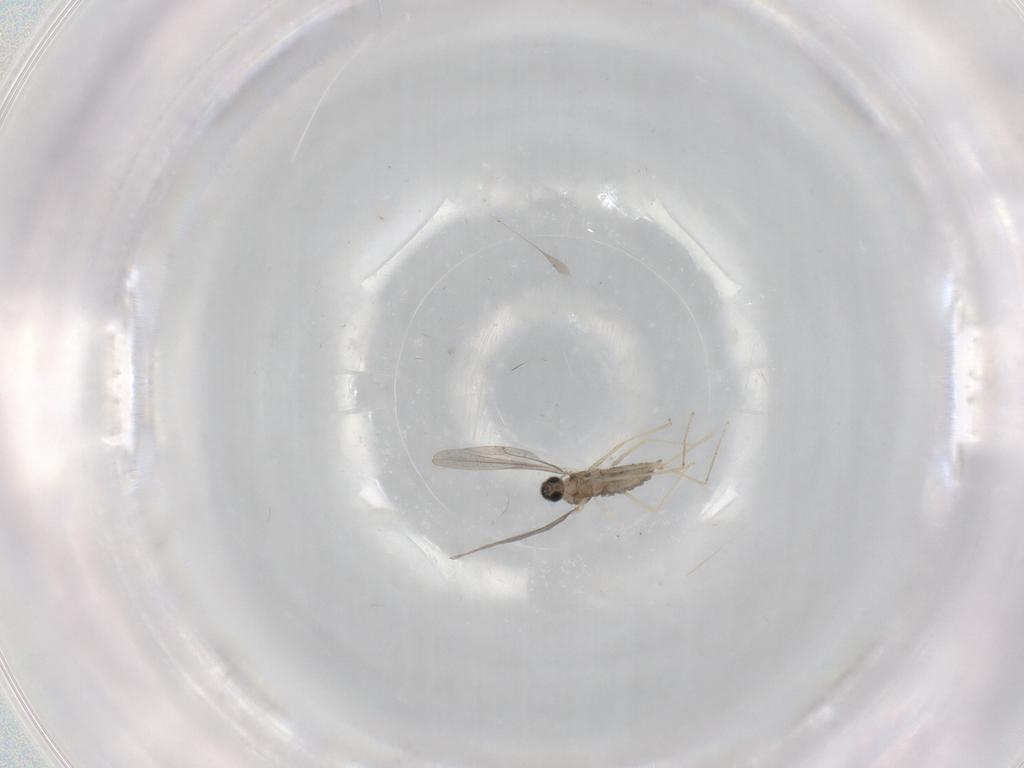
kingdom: Animalia
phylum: Arthropoda
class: Insecta
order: Diptera
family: Cecidomyiidae
